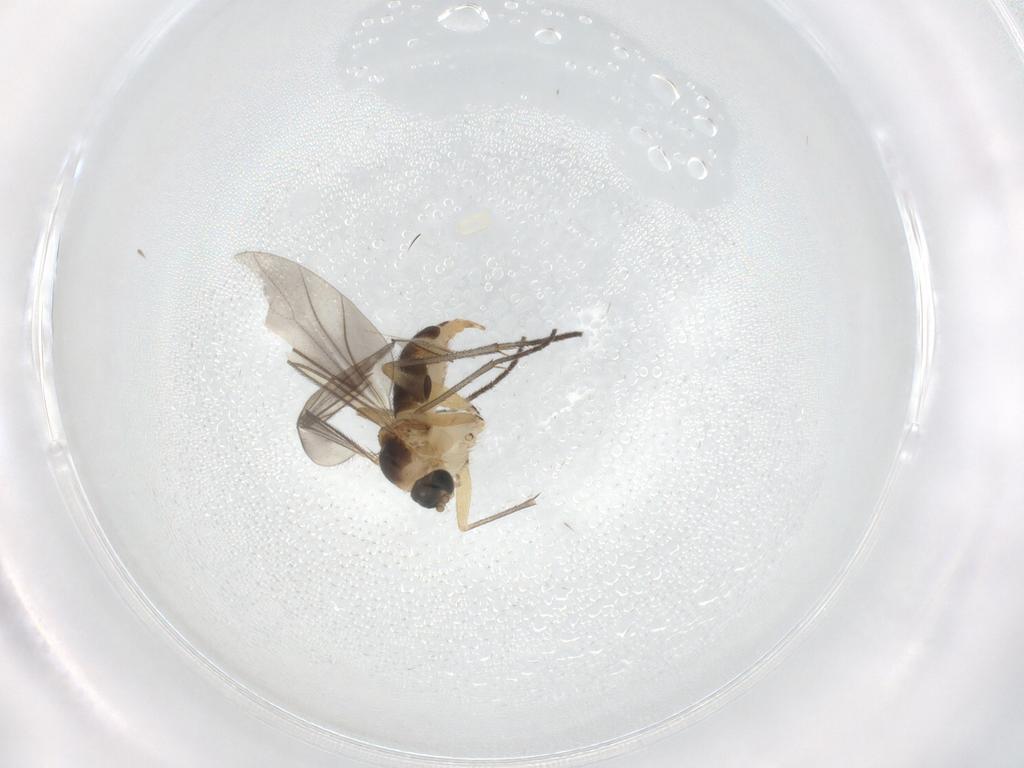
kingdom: Animalia
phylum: Arthropoda
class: Insecta
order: Diptera
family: Sciaridae
